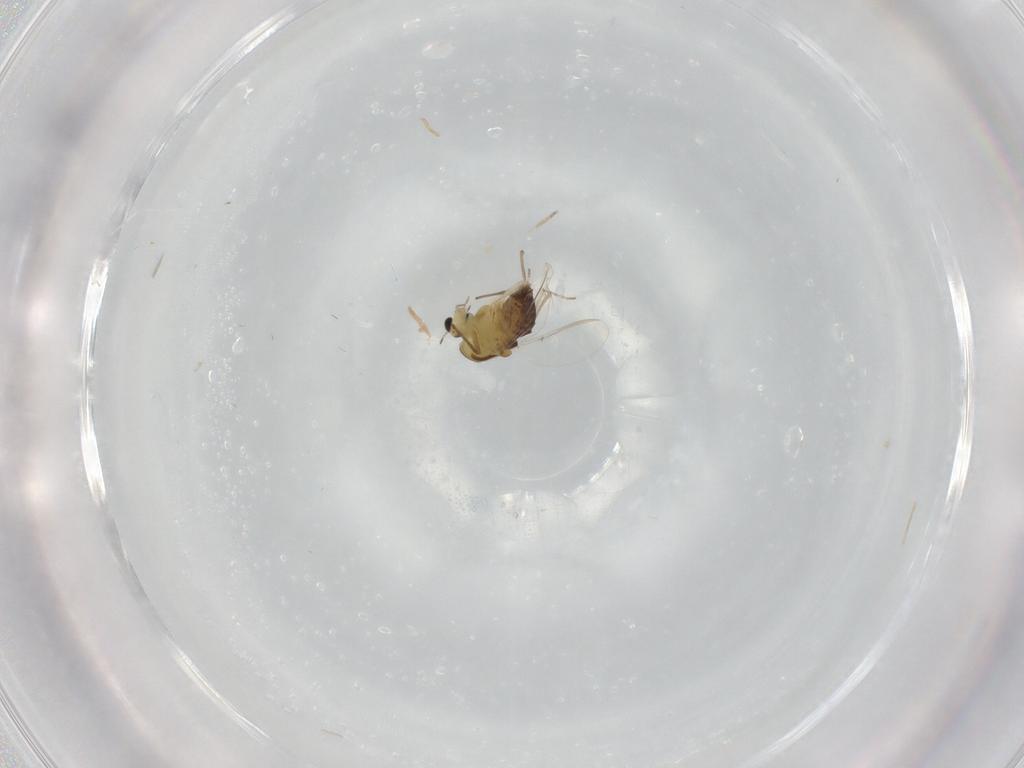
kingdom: Animalia
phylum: Arthropoda
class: Insecta
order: Diptera
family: Chironomidae
